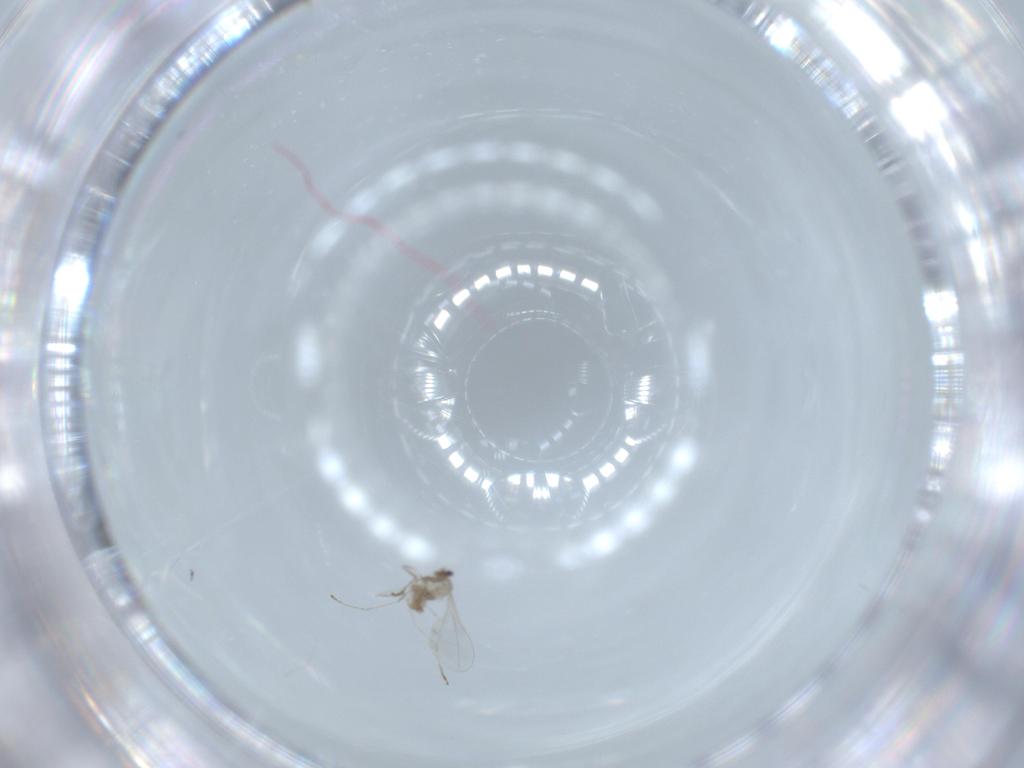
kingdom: Animalia
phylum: Arthropoda
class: Insecta
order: Diptera
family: Cecidomyiidae
